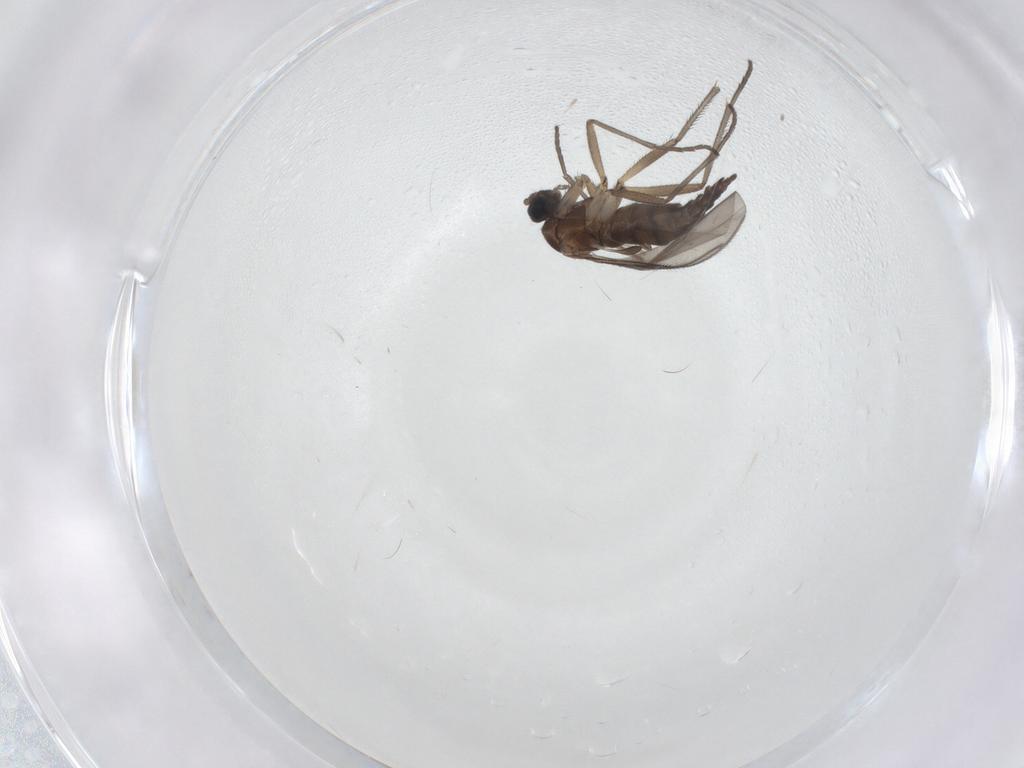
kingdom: Animalia
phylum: Arthropoda
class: Insecta
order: Diptera
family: Sciaridae
